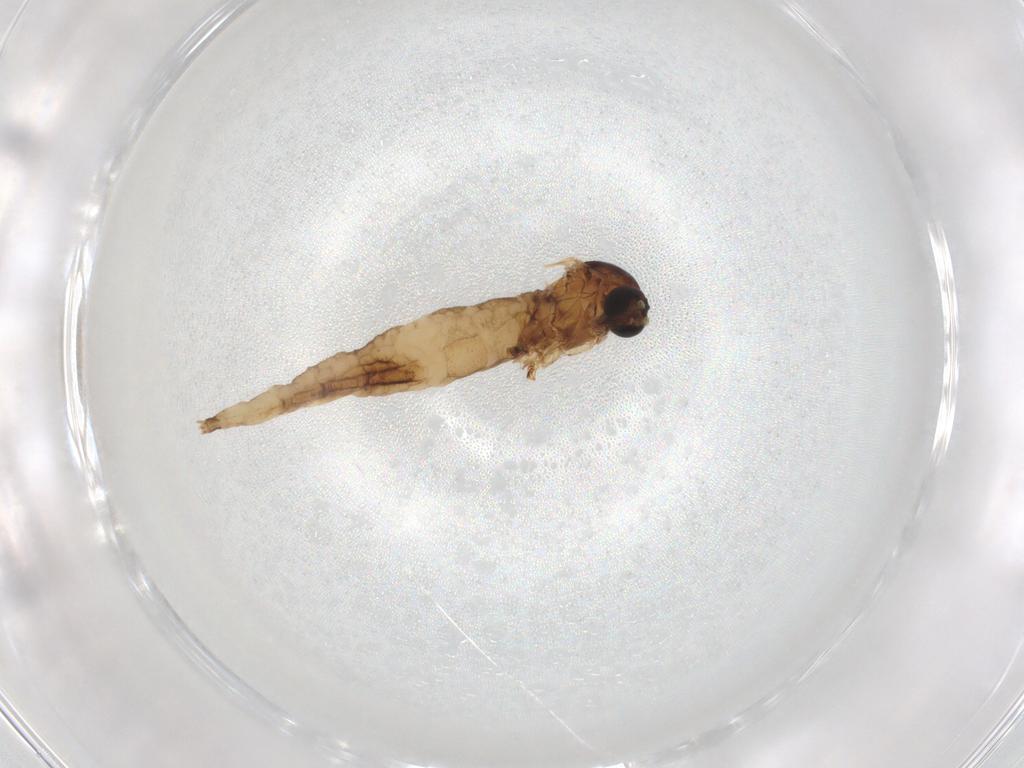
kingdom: Animalia
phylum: Arthropoda
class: Insecta
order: Diptera
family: Sciaridae
